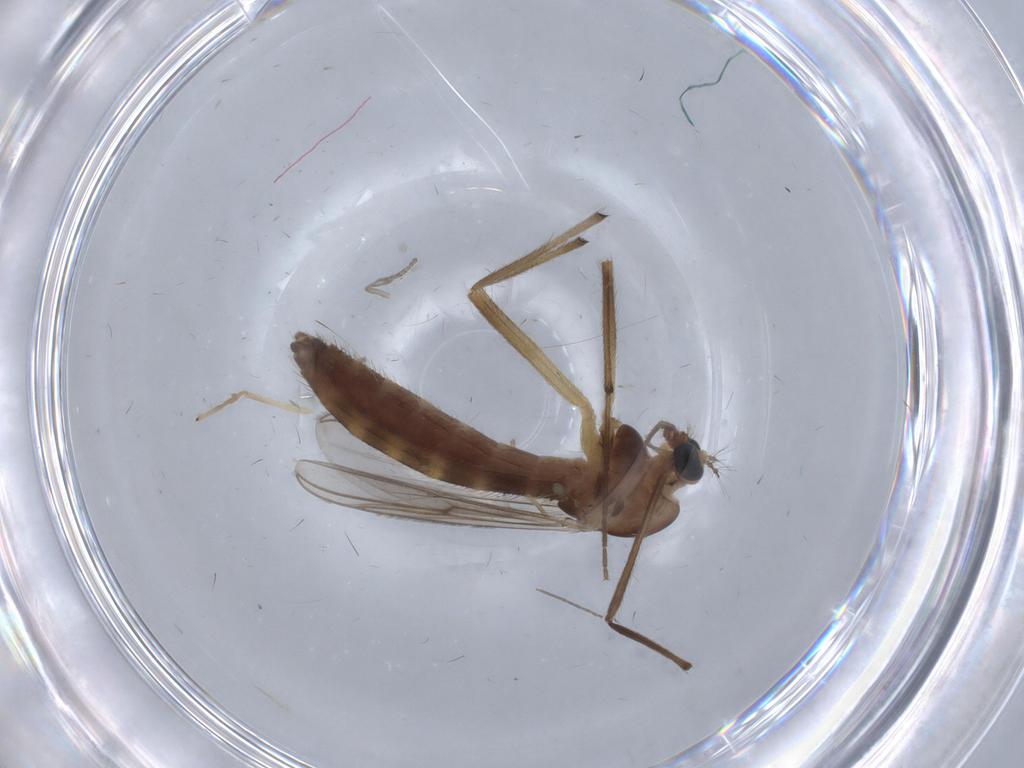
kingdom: Animalia
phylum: Arthropoda
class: Insecta
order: Diptera
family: Chironomidae
